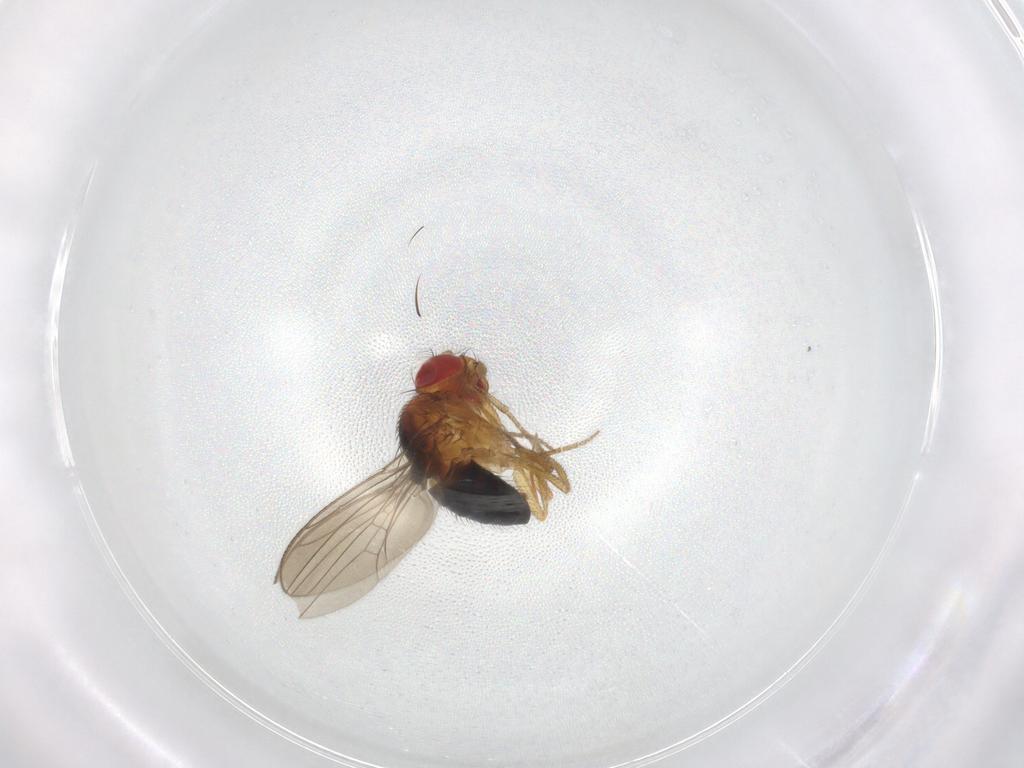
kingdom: Animalia
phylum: Arthropoda
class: Insecta
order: Diptera
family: Drosophilidae
